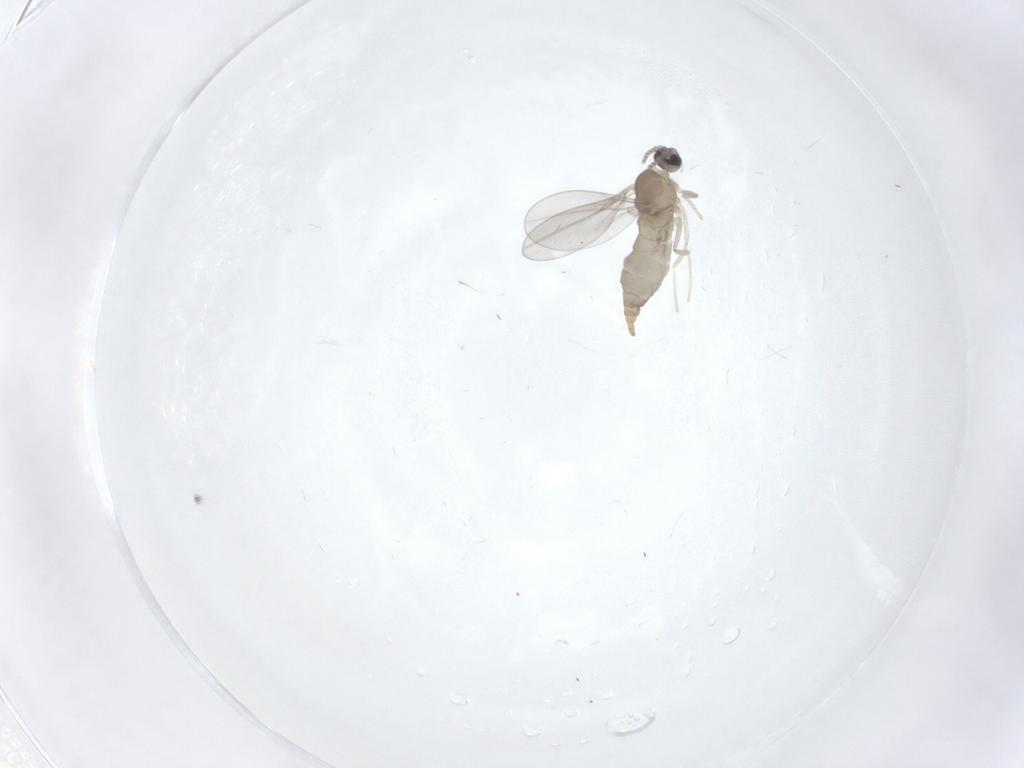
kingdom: Animalia
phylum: Arthropoda
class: Insecta
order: Diptera
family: Cecidomyiidae
